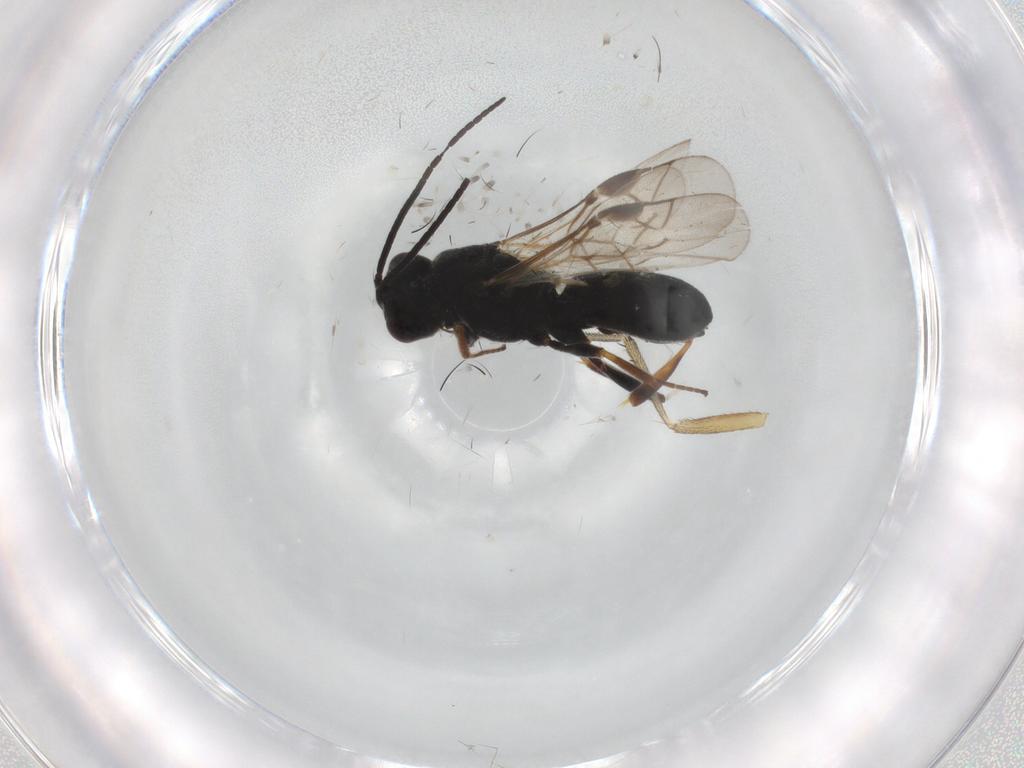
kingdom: Animalia
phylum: Arthropoda
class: Insecta
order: Hymenoptera
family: Braconidae
